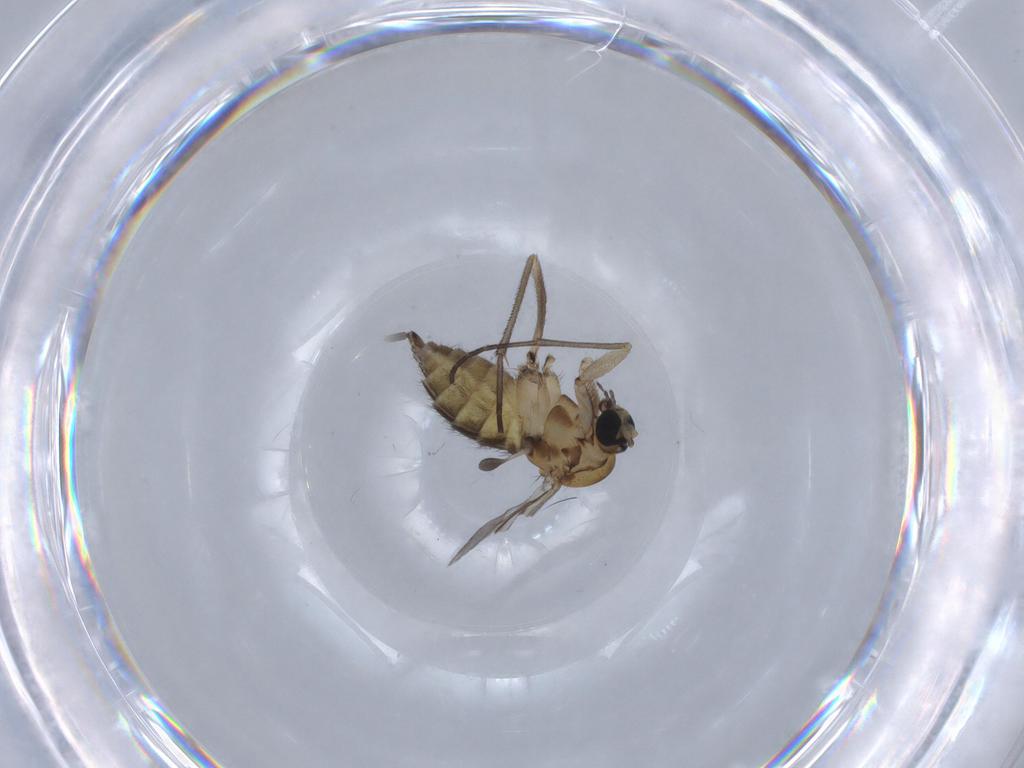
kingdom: Animalia
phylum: Arthropoda
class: Insecta
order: Diptera
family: Sciaridae
